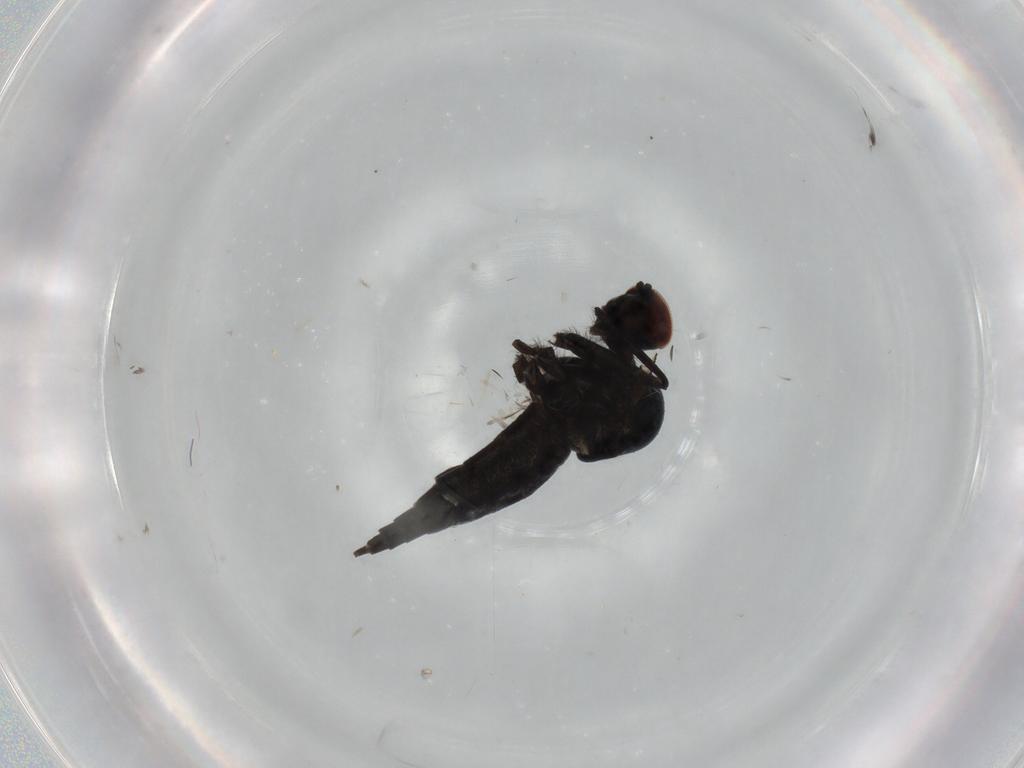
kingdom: Animalia
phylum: Arthropoda
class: Insecta
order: Diptera
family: Hybotidae
